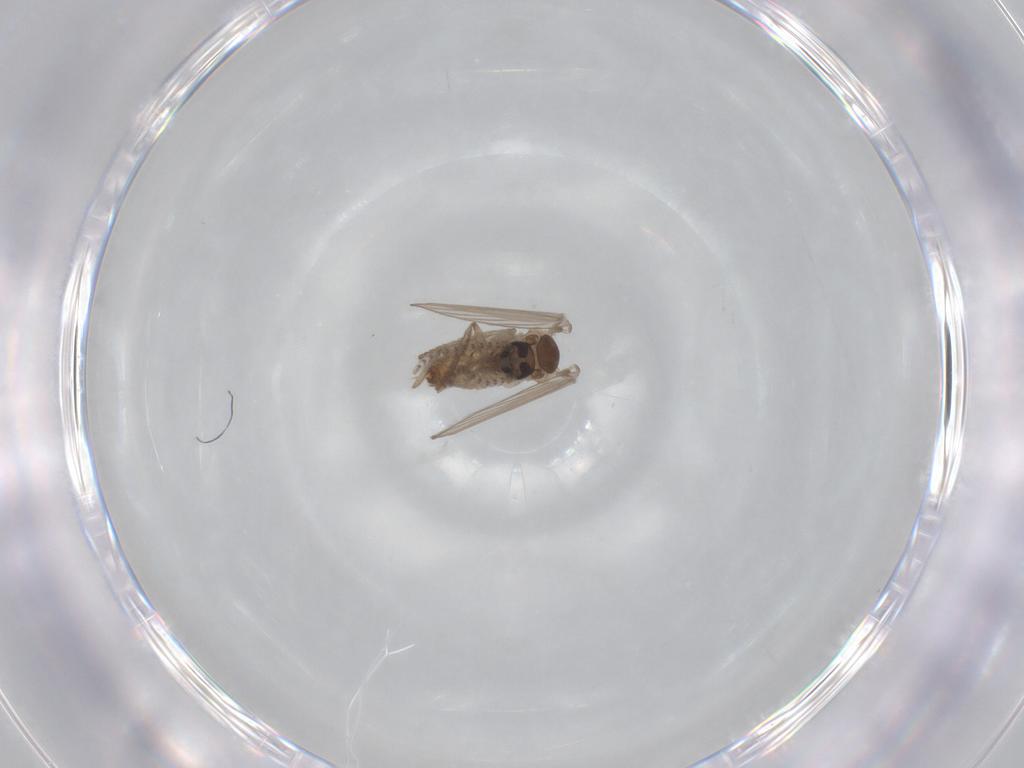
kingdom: Animalia
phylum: Arthropoda
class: Insecta
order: Diptera
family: Psychodidae
